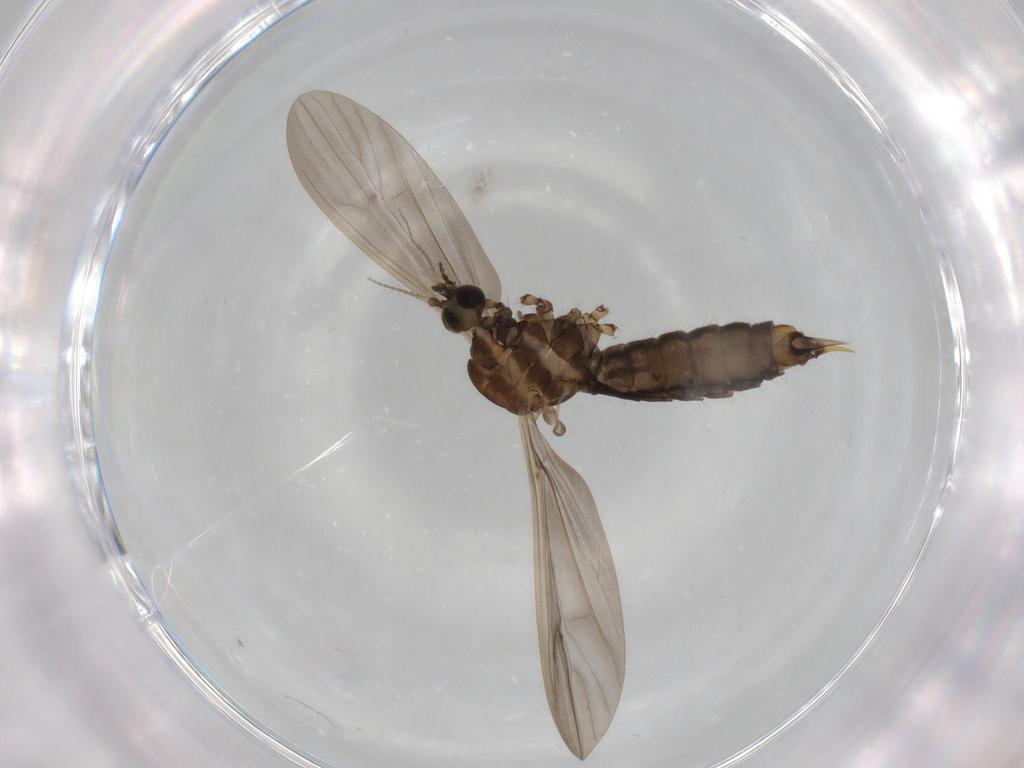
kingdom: Animalia
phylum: Arthropoda
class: Insecta
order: Diptera
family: Limoniidae
